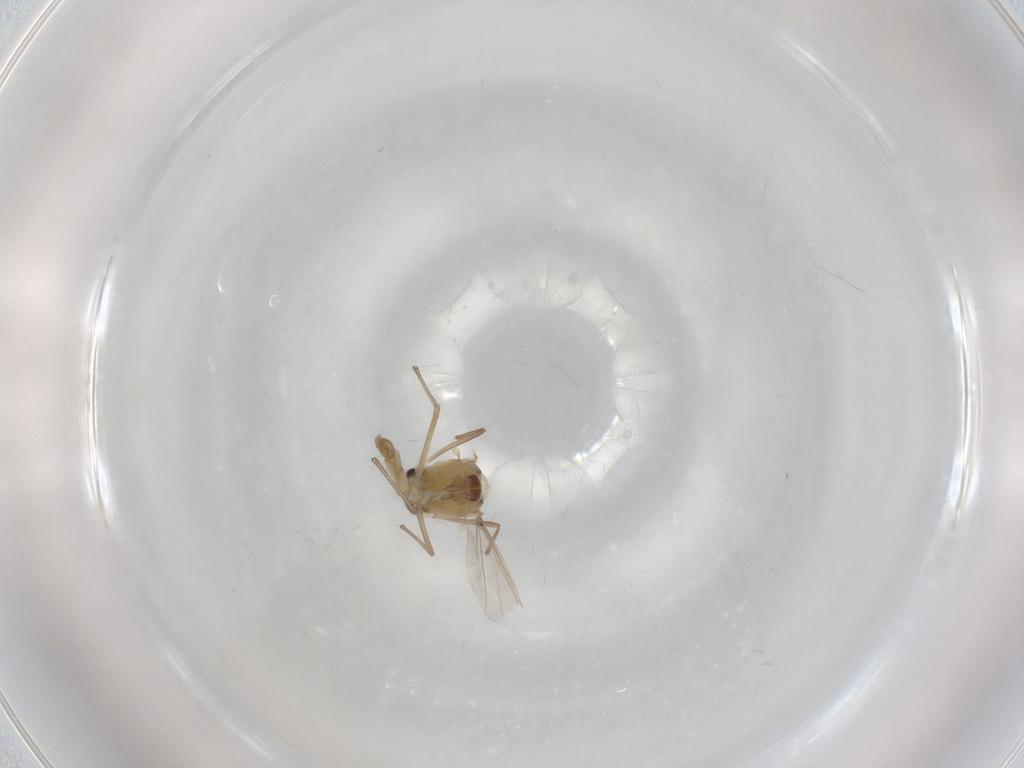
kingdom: Animalia
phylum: Arthropoda
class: Insecta
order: Diptera
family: Chironomidae
